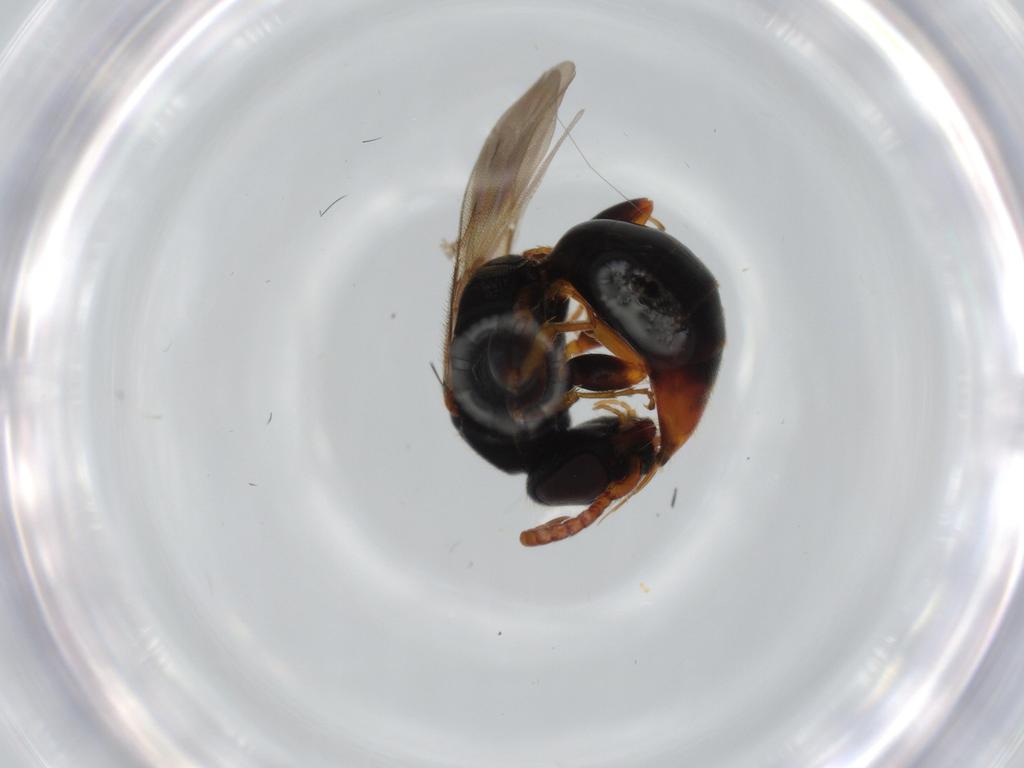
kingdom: Animalia
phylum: Arthropoda
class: Insecta
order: Hymenoptera
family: Bethylidae
